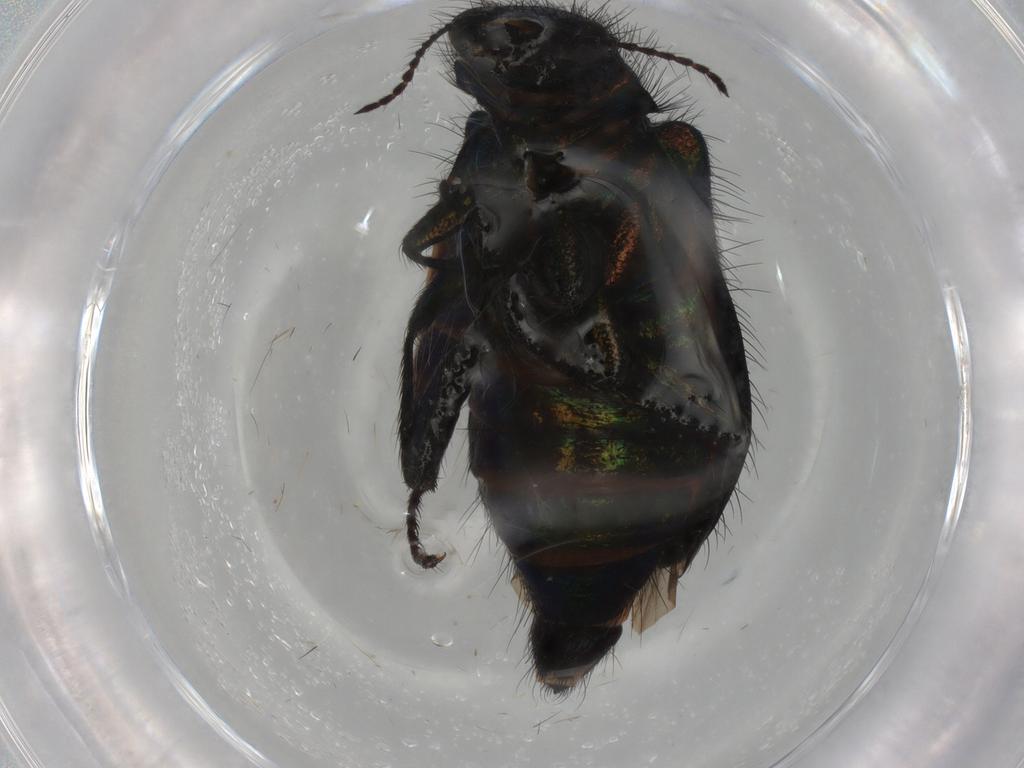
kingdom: Animalia
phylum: Arthropoda
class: Insecta
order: Coleoptera
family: Melyridae
